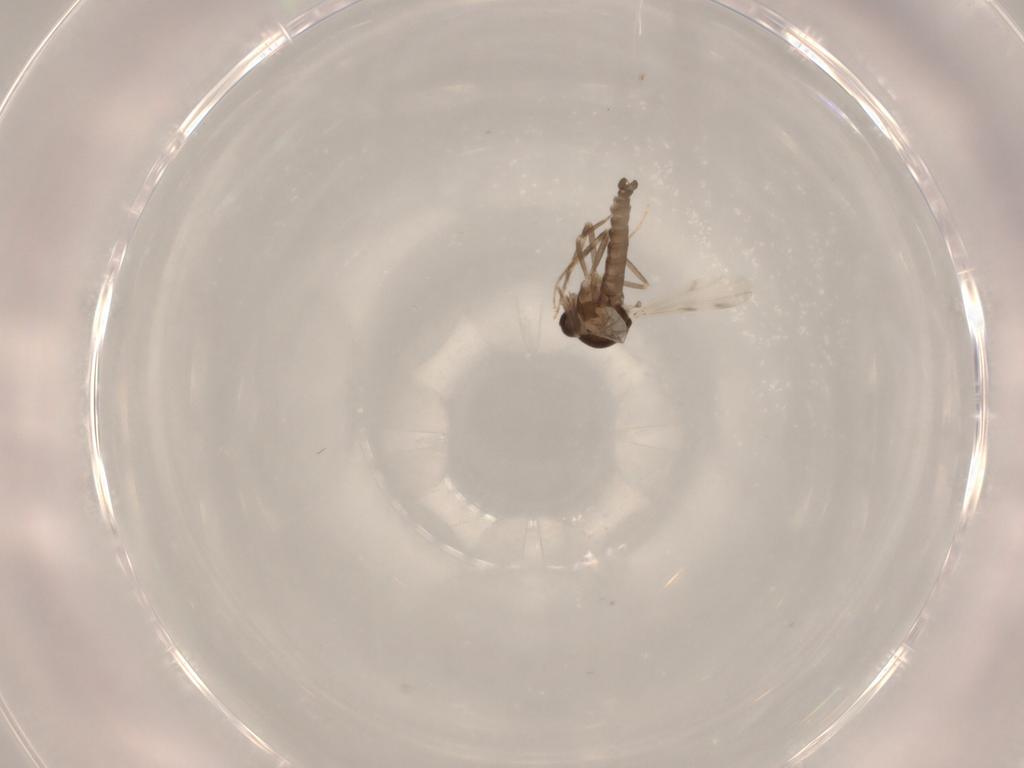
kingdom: Animalia
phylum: Arthropoda
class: Insecta
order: Diptera
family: Ceratopogonidae
